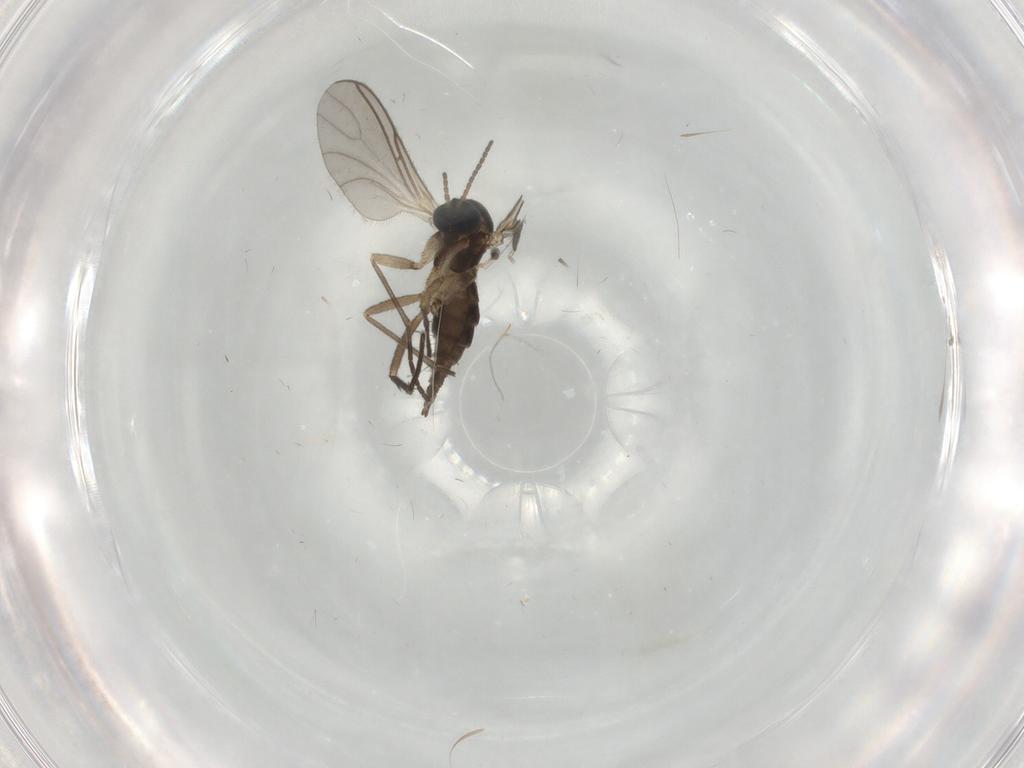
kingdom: Animalia
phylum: Arthropoda
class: Insecta
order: Diptera
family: Sciaridae
